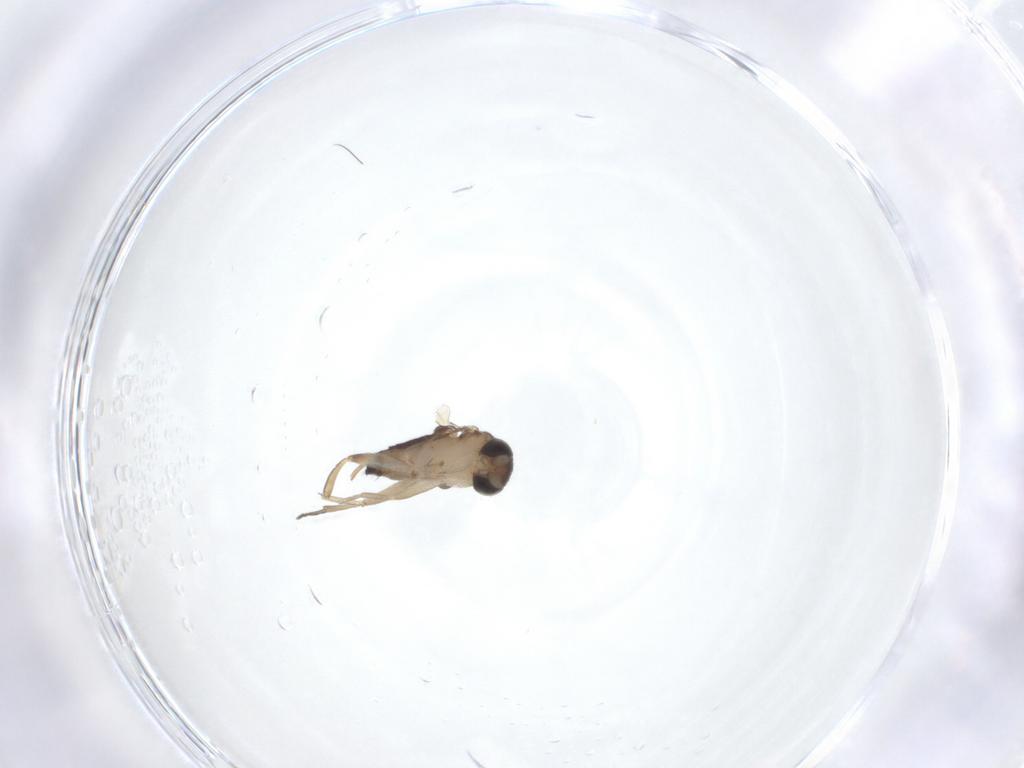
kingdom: Animalia
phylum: Arthropoda
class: Insecta
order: Diptera
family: Phoridae
